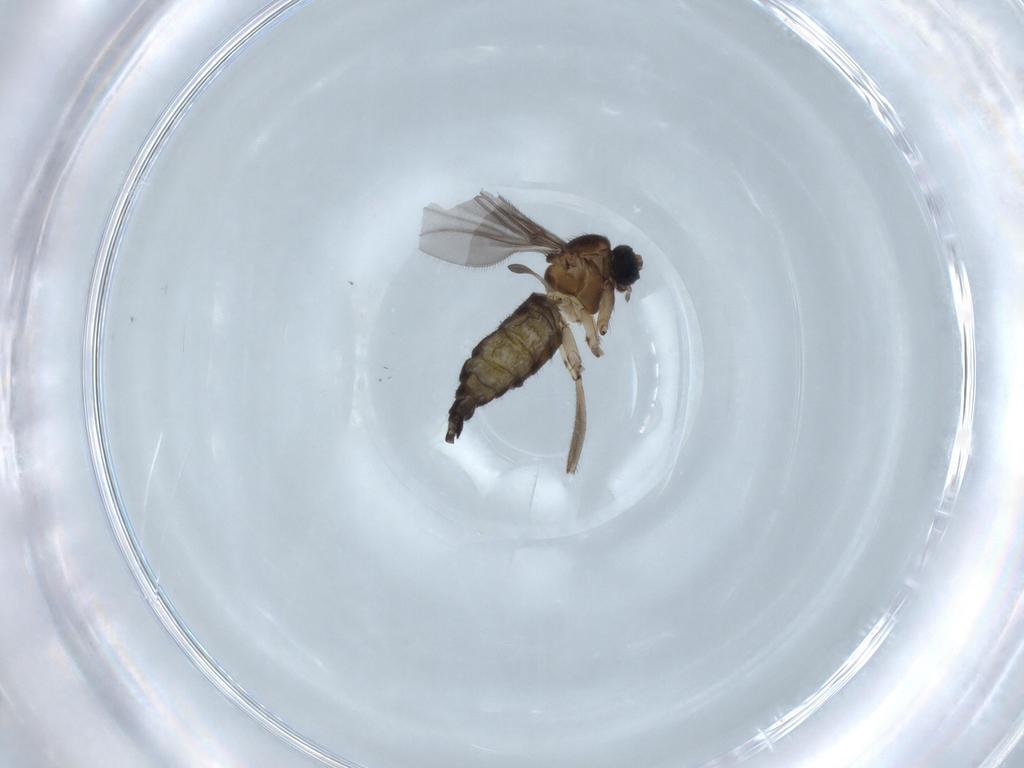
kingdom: Animalia
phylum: Arthropoda
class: Insecta
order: Diptera
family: Sciaridae
